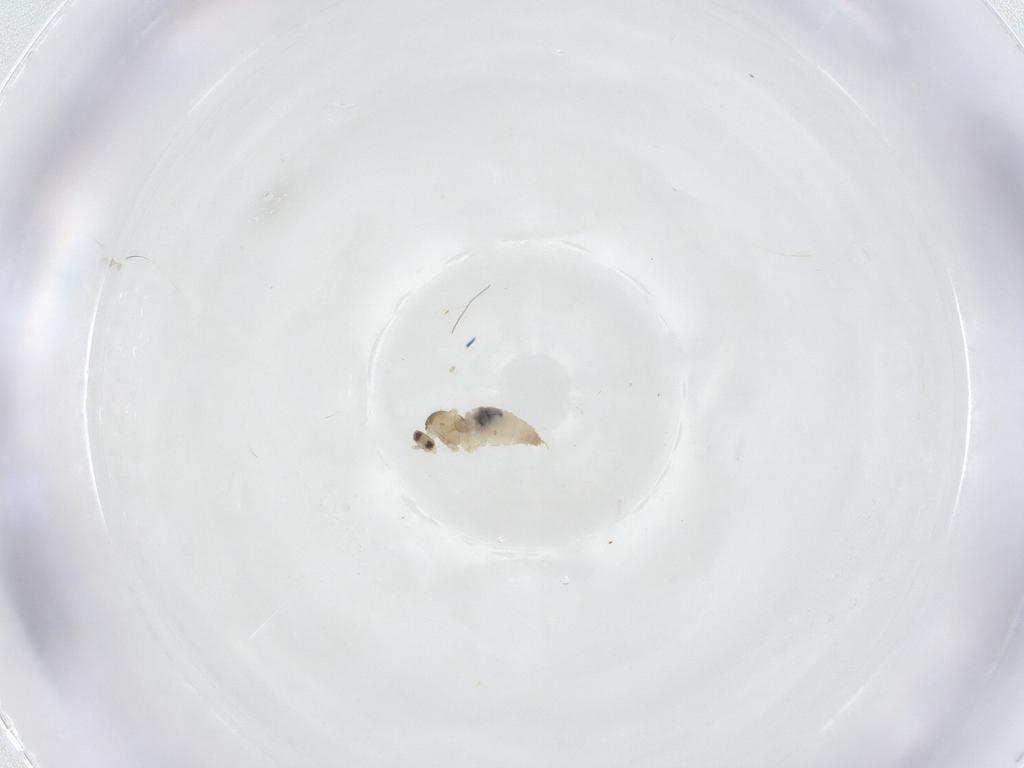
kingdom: Animalia
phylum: Arthropoda
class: Insecta
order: Diptera
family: Cecidomyiidae
